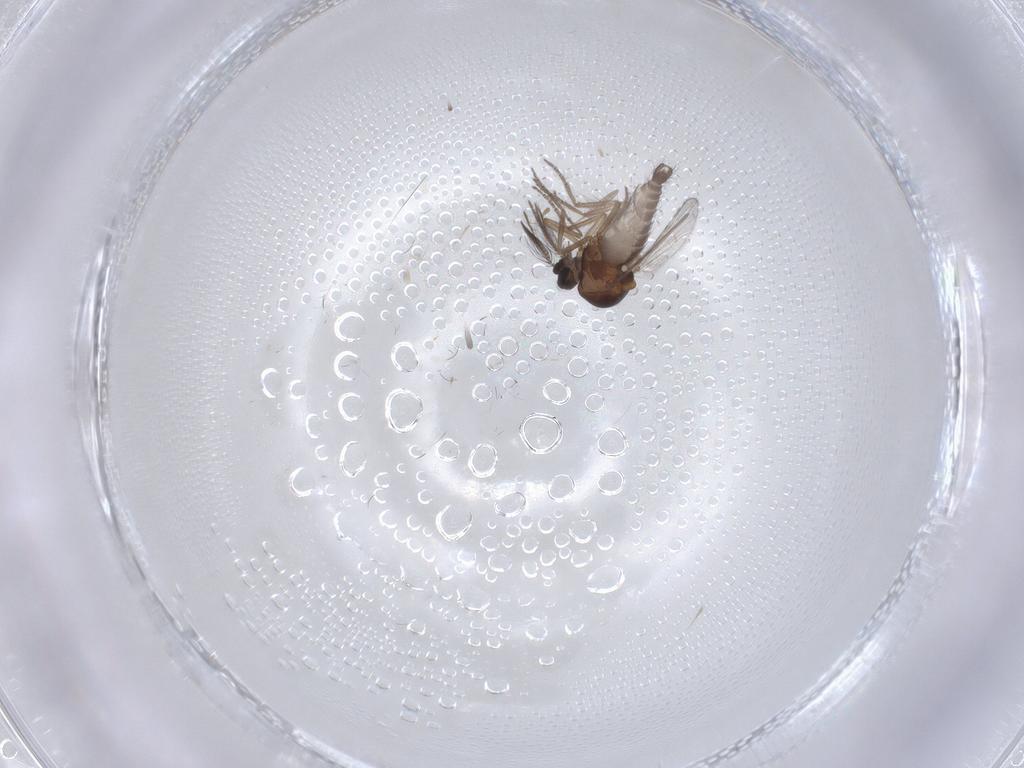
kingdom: Animalia
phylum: Arthropoda
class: Insecta
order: Diptera
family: Ceratopogonidae
